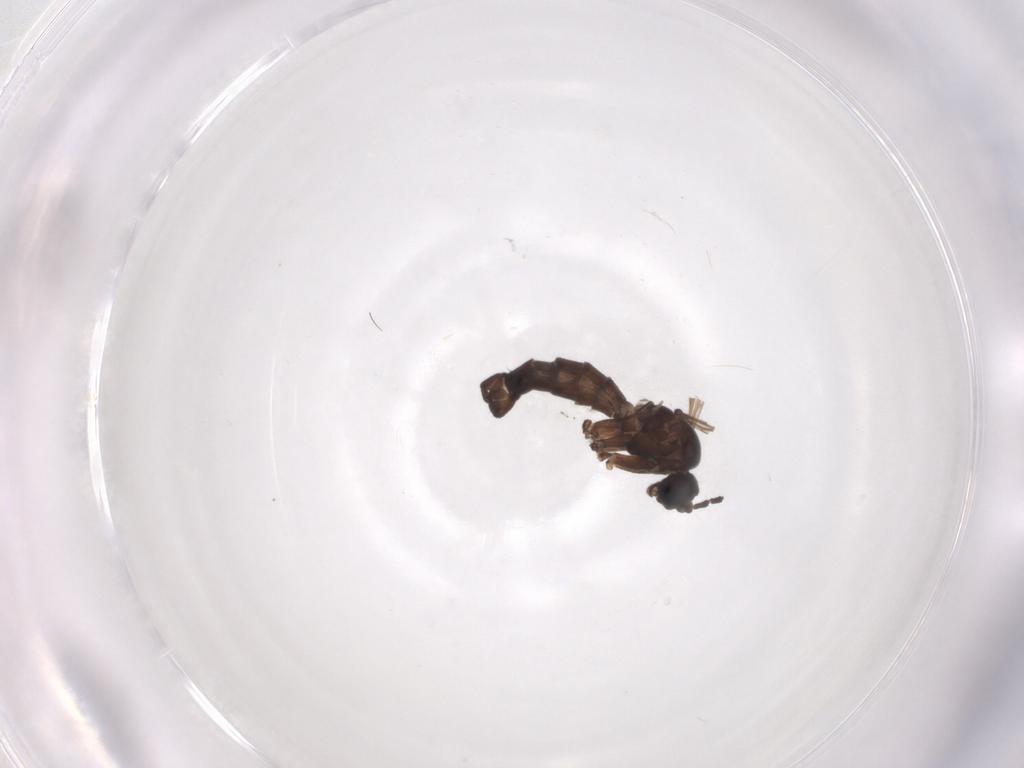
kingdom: Animalia
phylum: Arthropoda
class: Insecta
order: Diptera
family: Sciaridae
